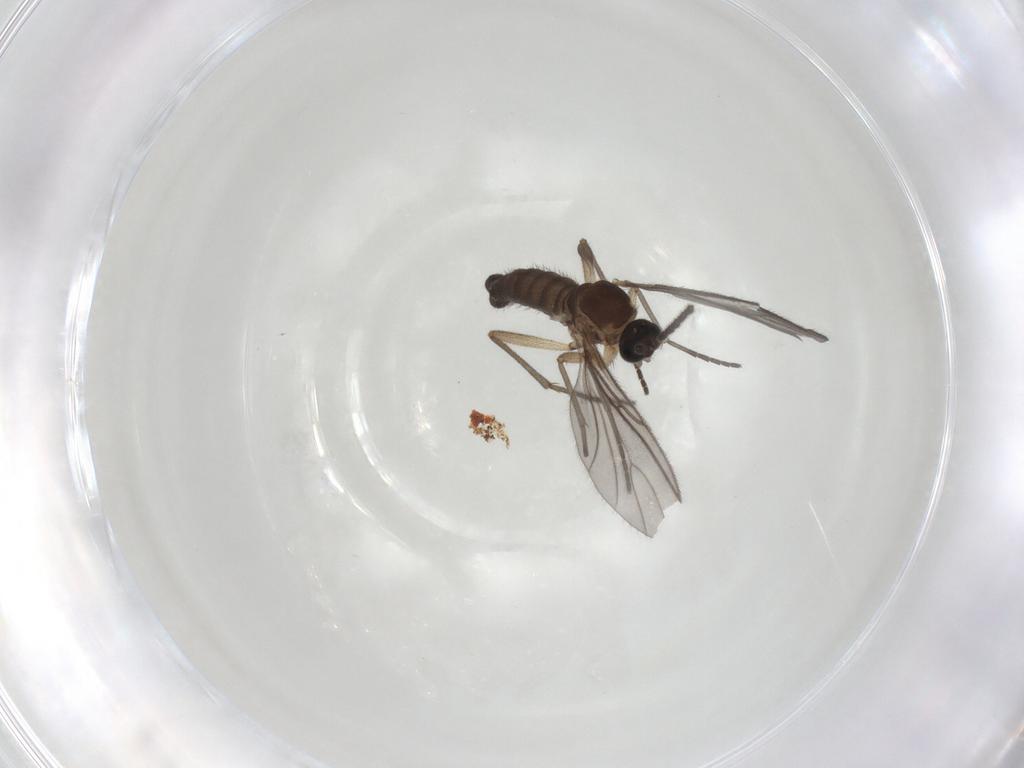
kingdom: Animalia
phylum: Arthropoda
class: Insecta
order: Diptera
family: Sciaridae
